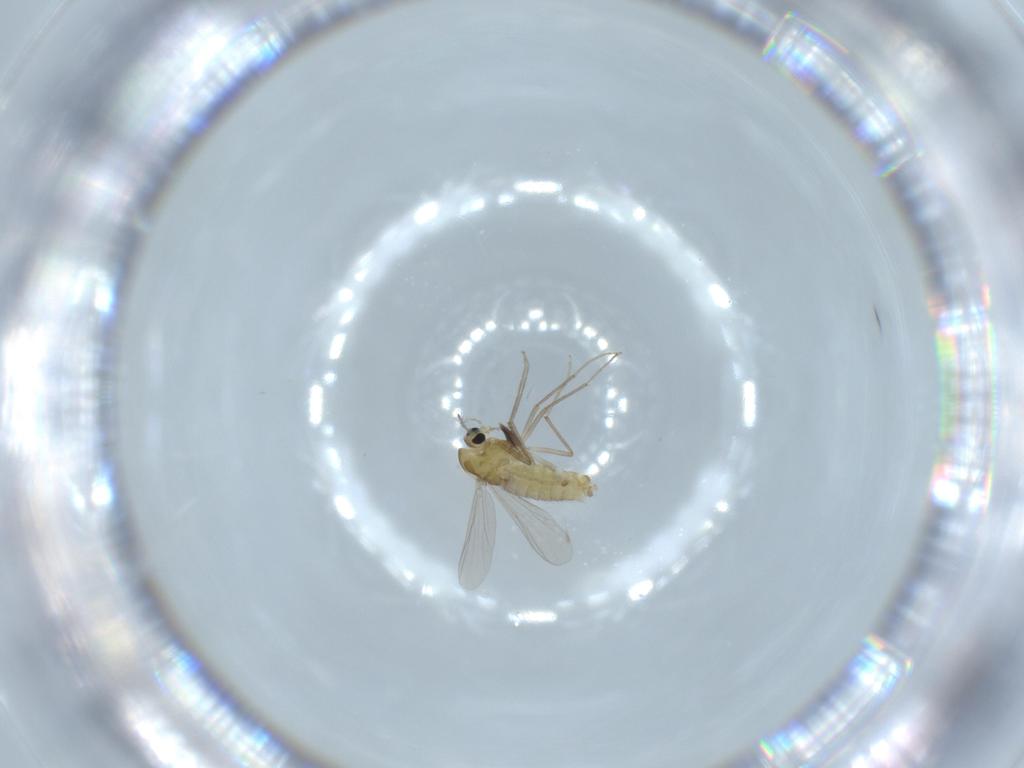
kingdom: Animalia
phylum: Arthropoda
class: Insecta
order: Diptera
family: Chironomidae
